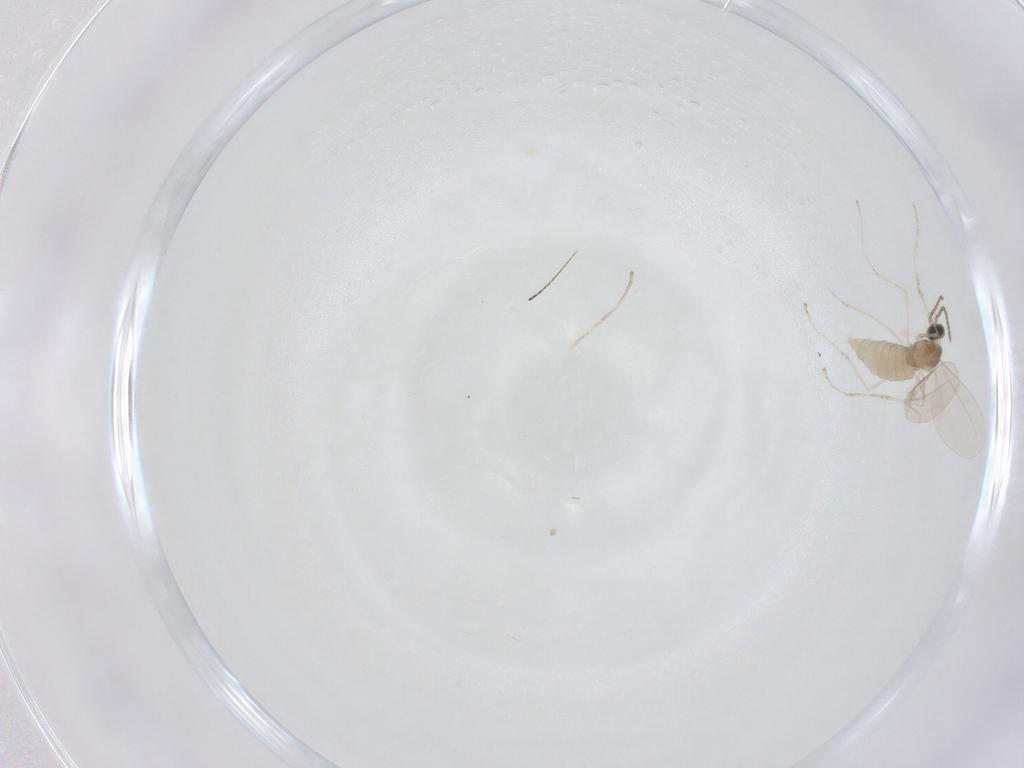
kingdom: Animalia
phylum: Arthropoda
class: Insecta
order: Diptera
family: Cecidomyiidae
